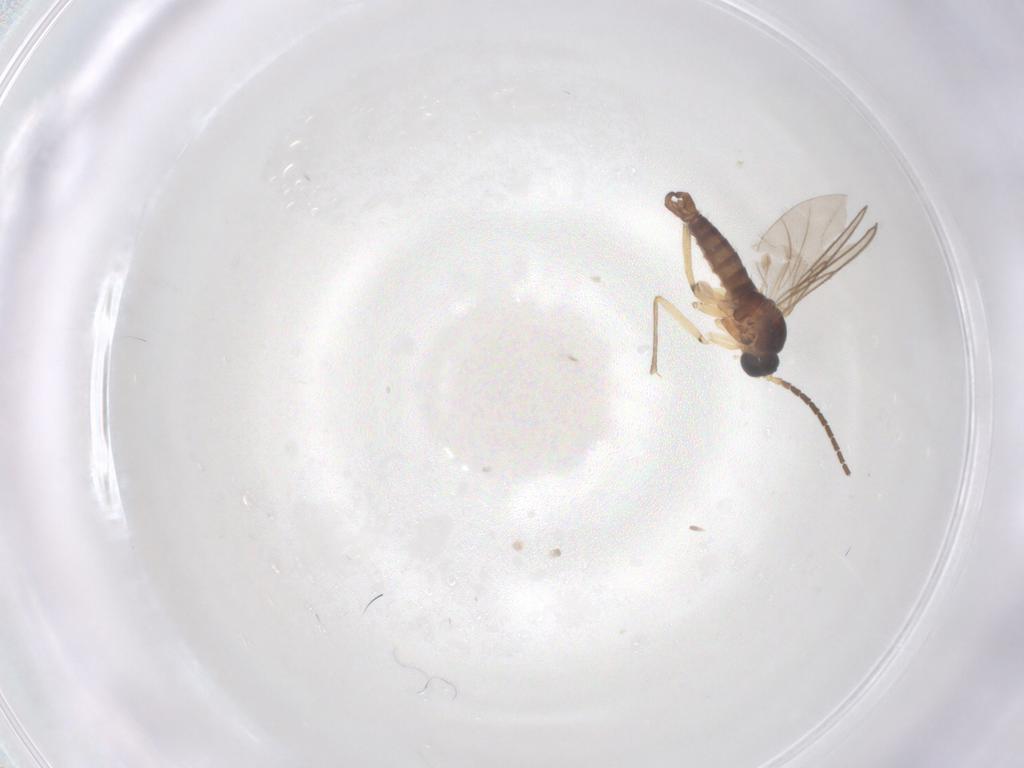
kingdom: Animalia
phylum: Arthropoda
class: Insecta
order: Diptera
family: Sciaridae
